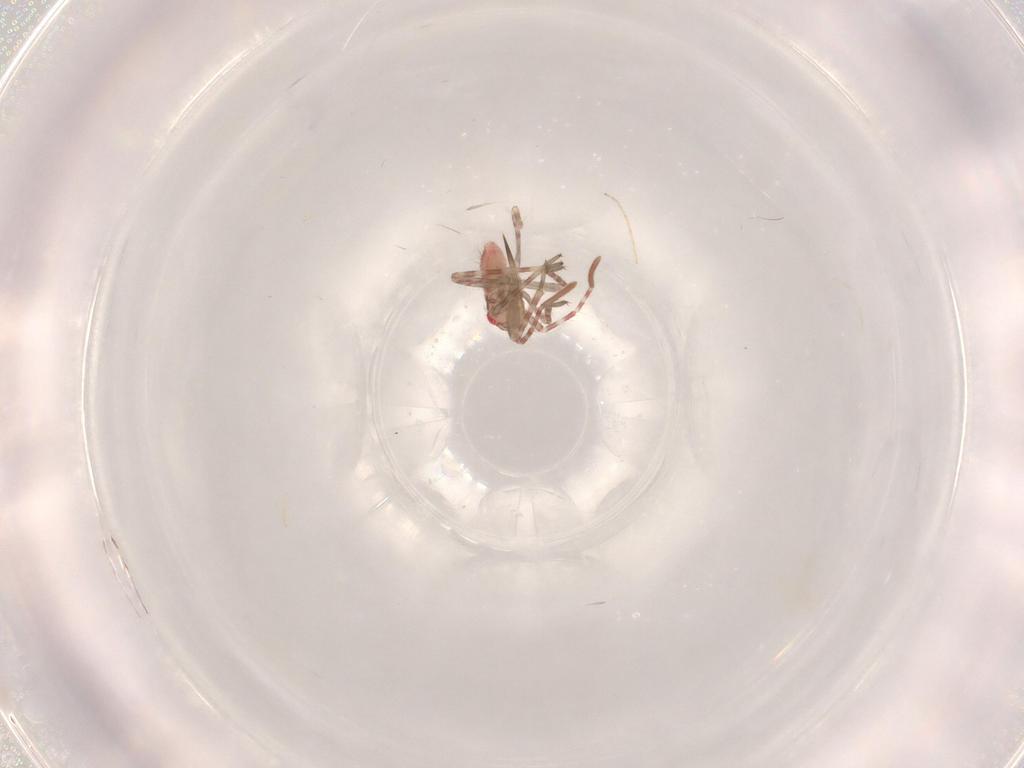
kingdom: Animalia
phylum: Arthropoda
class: Insecta
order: Hemiptera
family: Miridae
